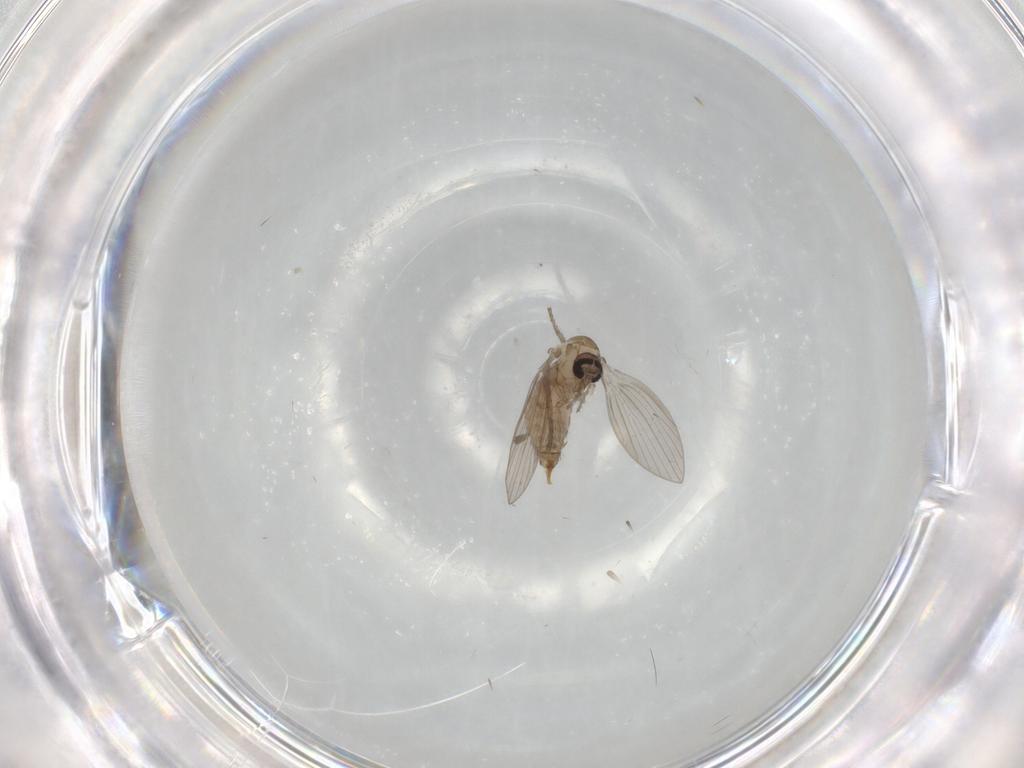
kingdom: Animalia
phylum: Arthropoda
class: Insecta
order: Diptera
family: Psychodidae
